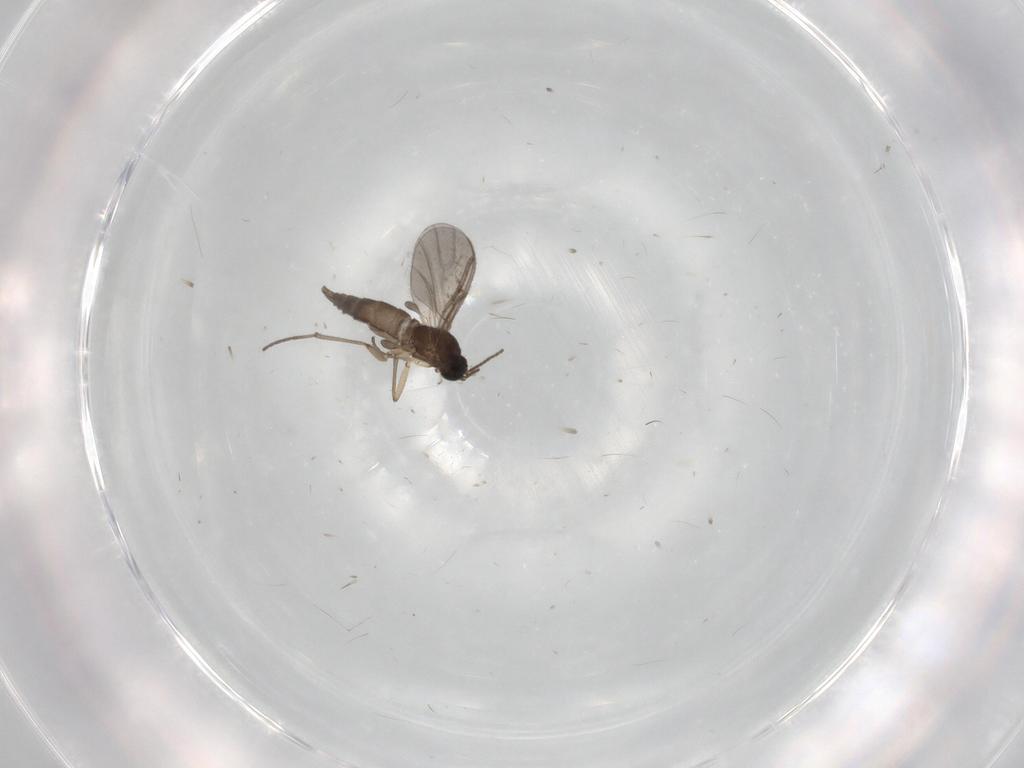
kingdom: Animalia
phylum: Arthropoda
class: Insecta
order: Diptera
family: Sciaridae
